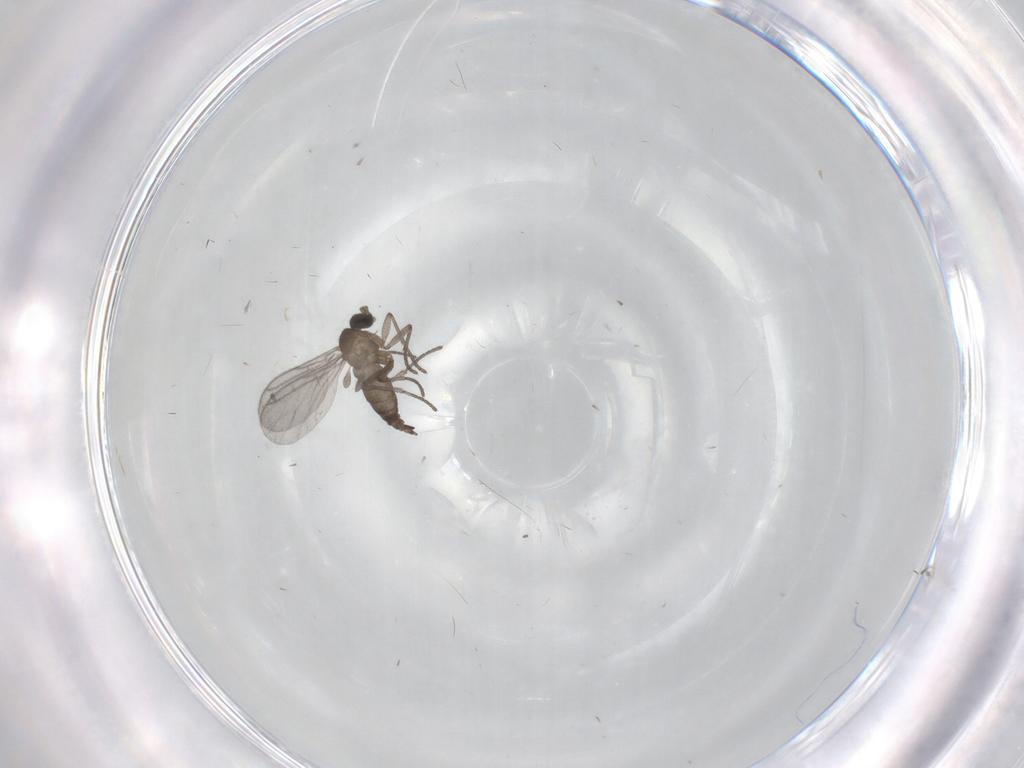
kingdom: Animalia
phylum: Arthropoda
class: Insecta
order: Diptera
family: Sciaridae
